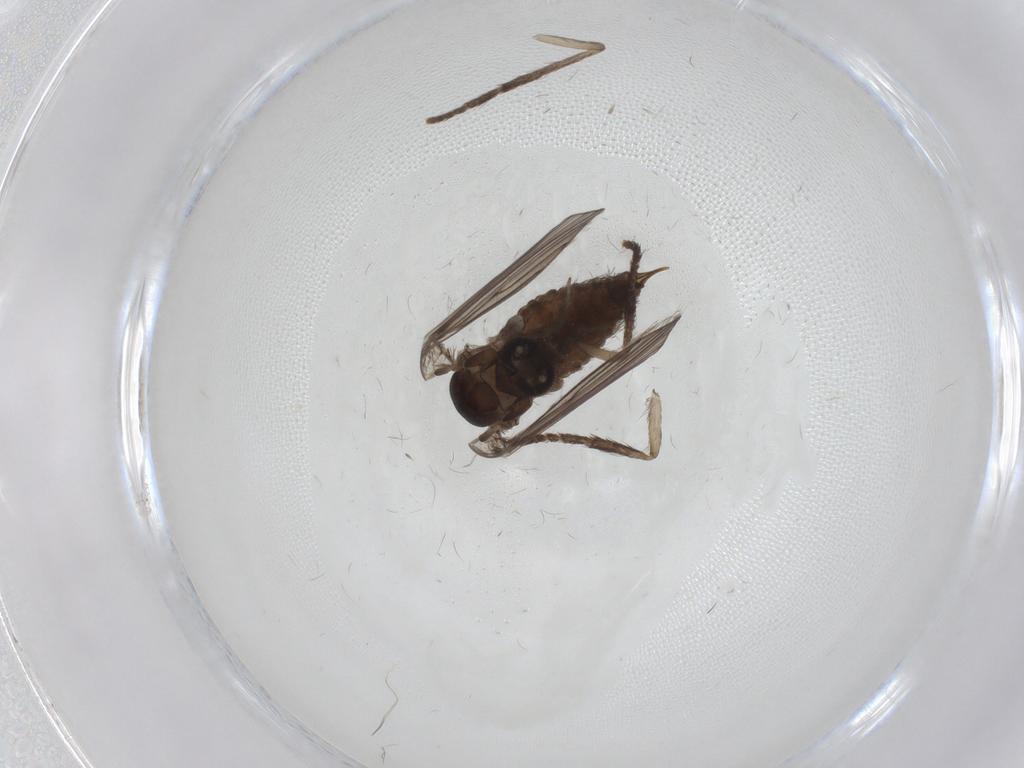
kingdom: Animalia
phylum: Arthropoda
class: Insecta
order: Diptera
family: Psychodidae
